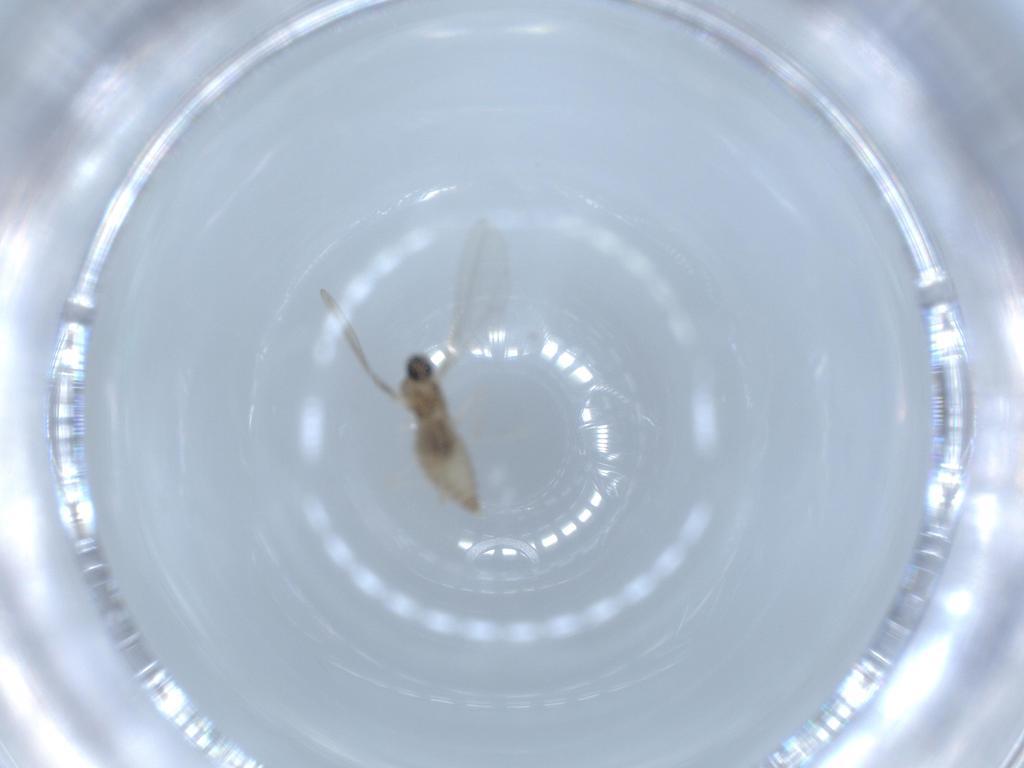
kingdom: Animalia
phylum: Arthropoda
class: Insecta
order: Diptera
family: Cecidomyiidae
